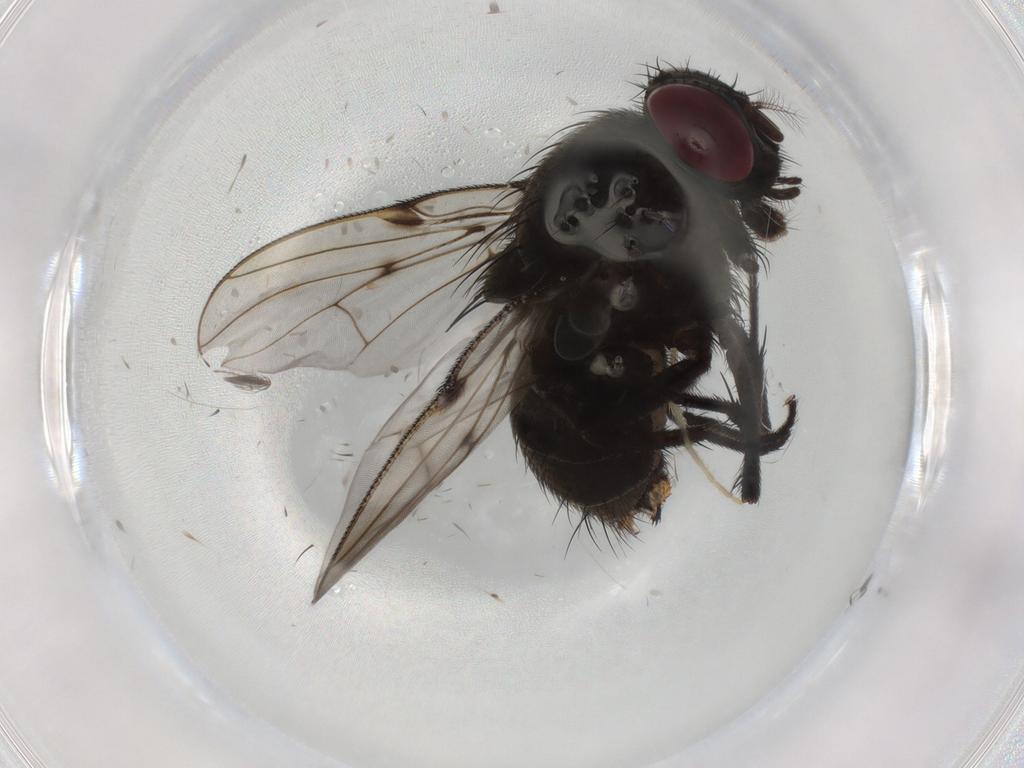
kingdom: Animalia
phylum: Arthropoda
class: Insecta
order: Diptera
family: Muscidae
